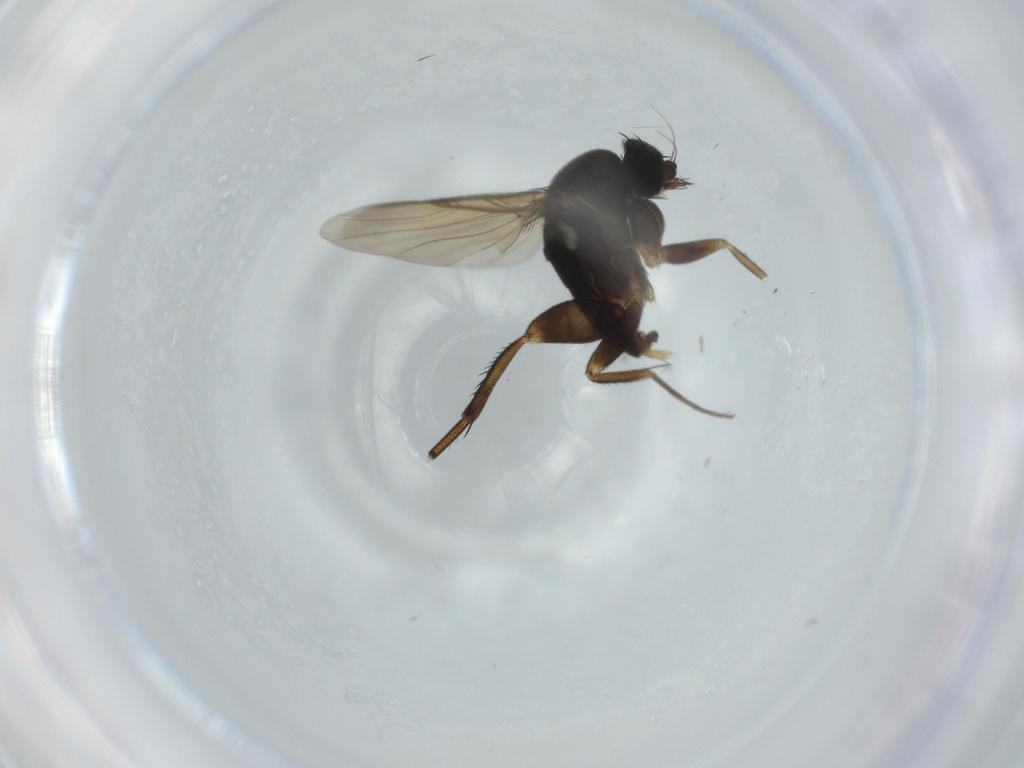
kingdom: Animalia
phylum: Arthropoda
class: Insecta
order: Diptera
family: Phoridae
